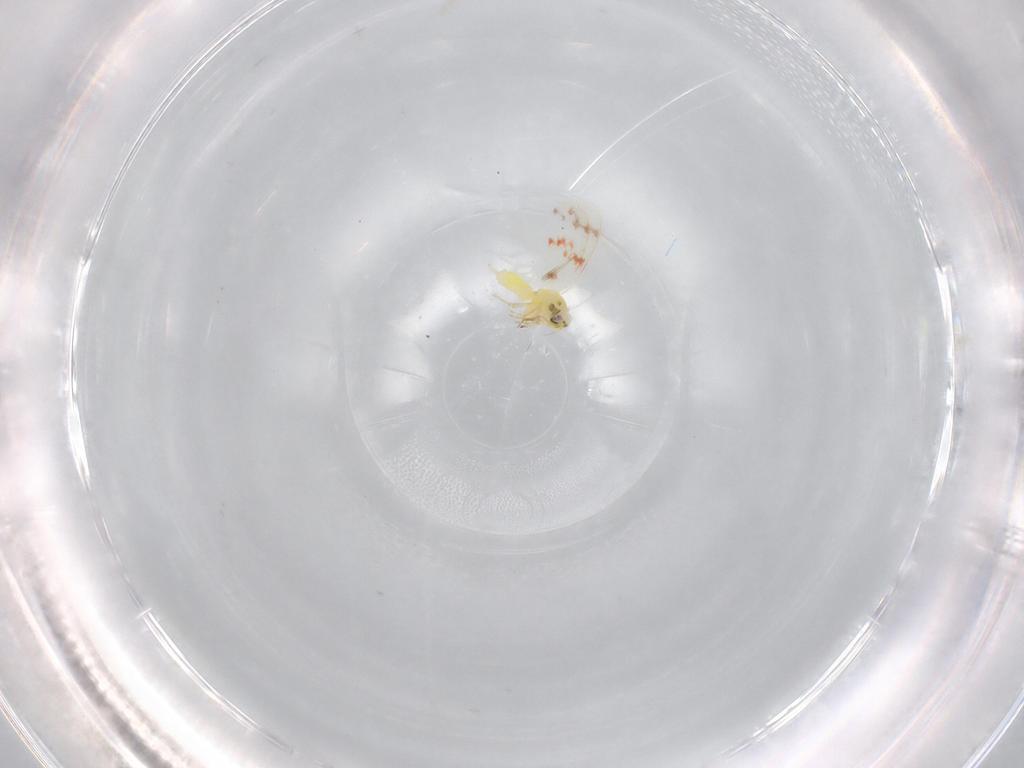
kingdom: Animalia
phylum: Arthropoda
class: Insecta
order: Hemiptera
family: Aleyrodidae
